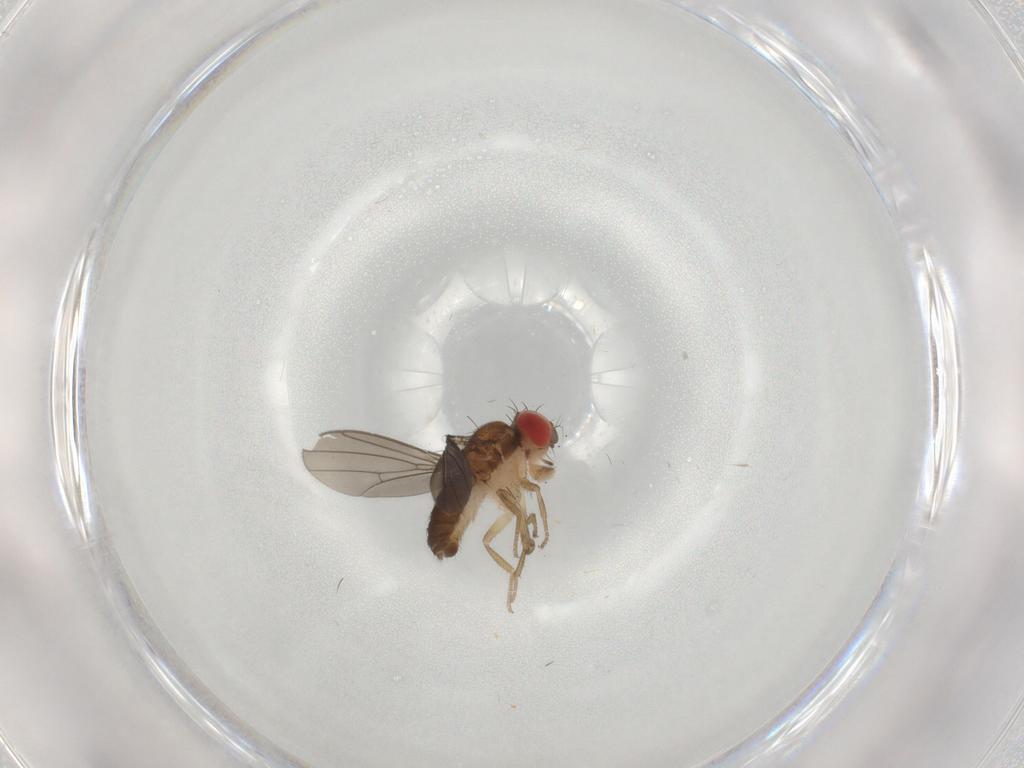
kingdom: Animalia
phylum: Arthropoda
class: Insecta
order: Diptera
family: Drosophilidae
